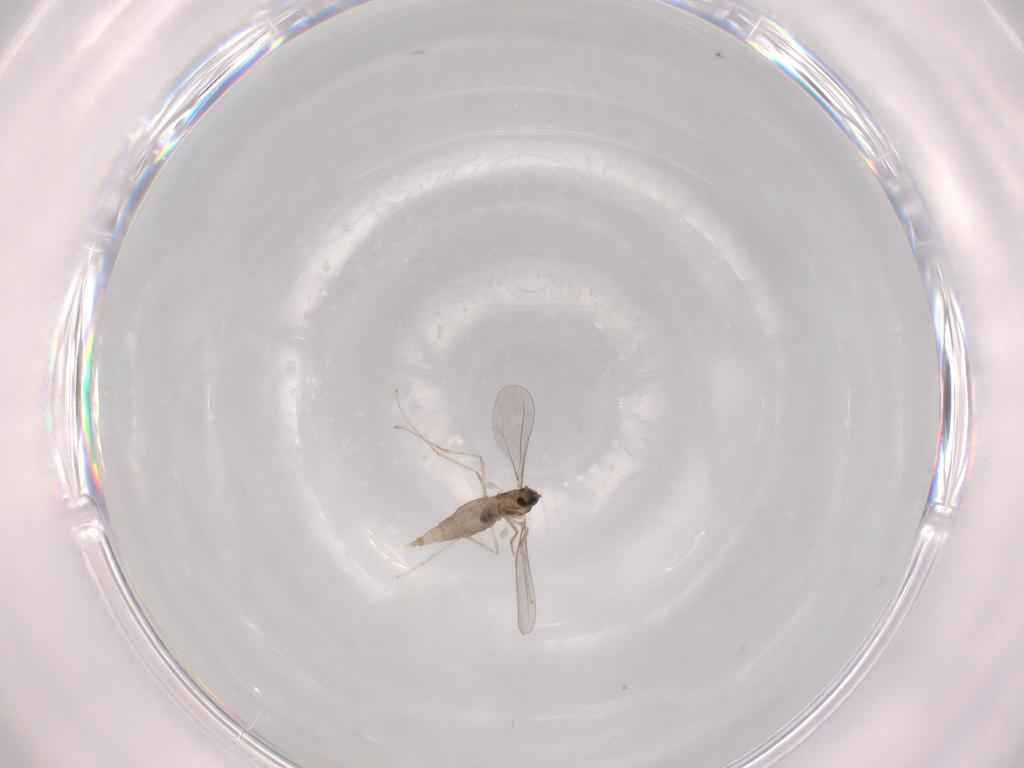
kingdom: Animalia
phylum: Arthropoda
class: Insecta
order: Diptera
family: Ceratopogonidae
